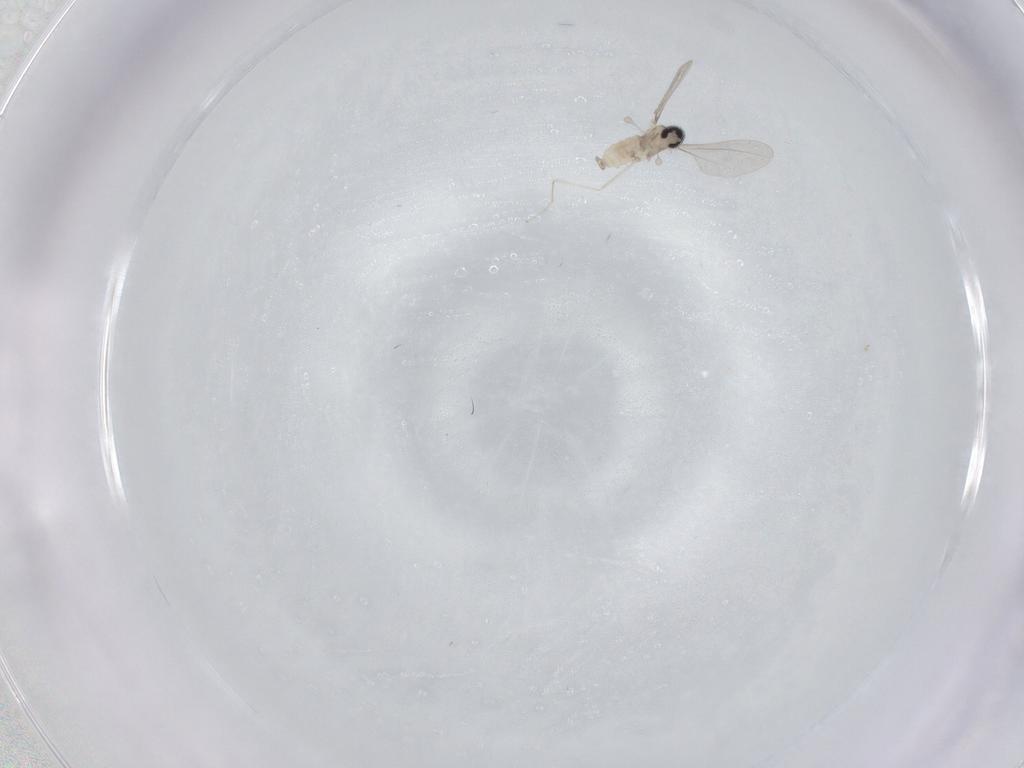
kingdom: Animalia
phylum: Arthropoda
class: Insecta
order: Diptera
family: Cecidomyiidae
